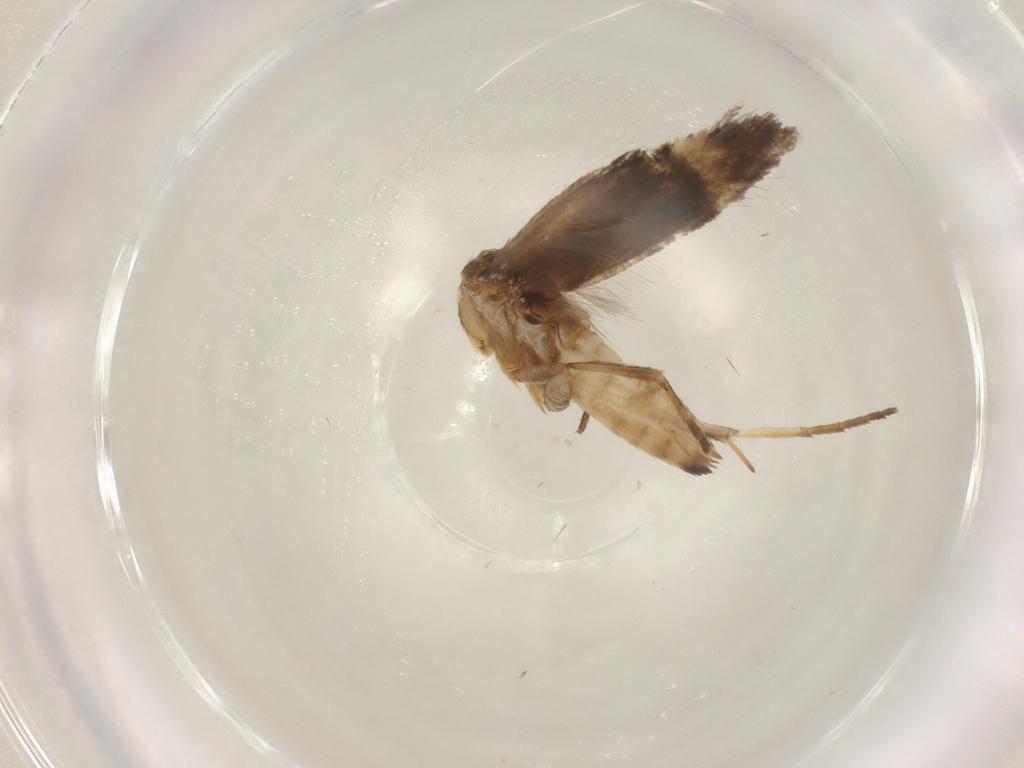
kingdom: Animalia
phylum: Arthropoda
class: Insecta
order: Lepidoptera
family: Gelechiidae
